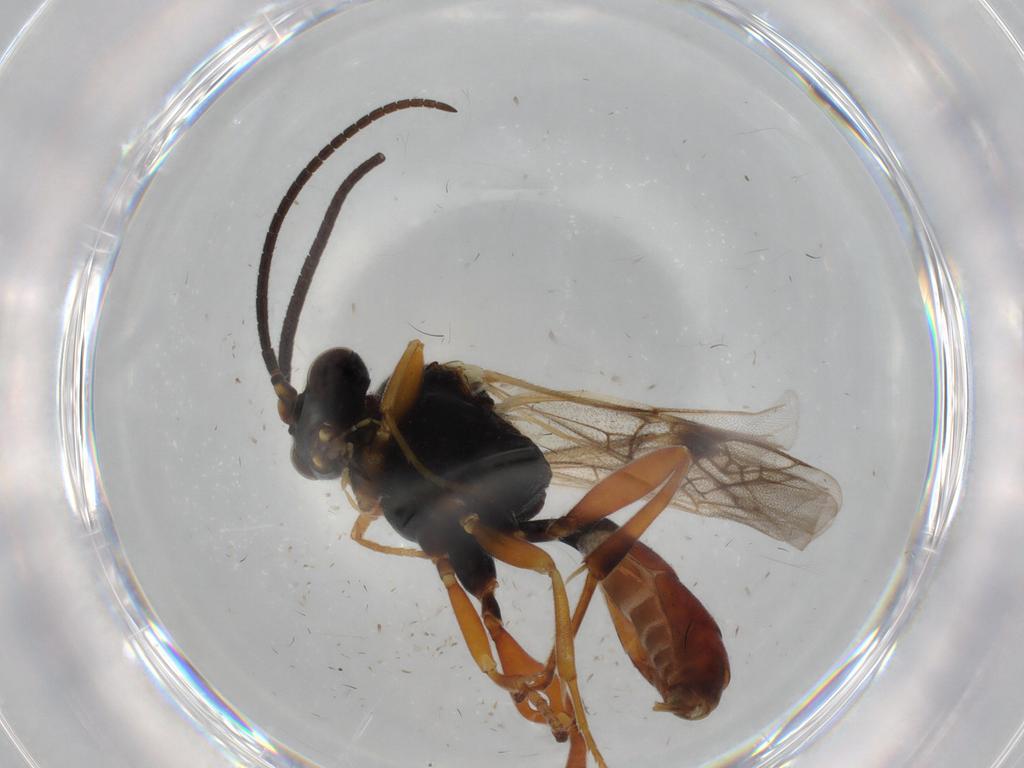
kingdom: Animalia
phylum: Arthropoda
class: Insecta
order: Hymenoptera
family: Ichneumonidae
